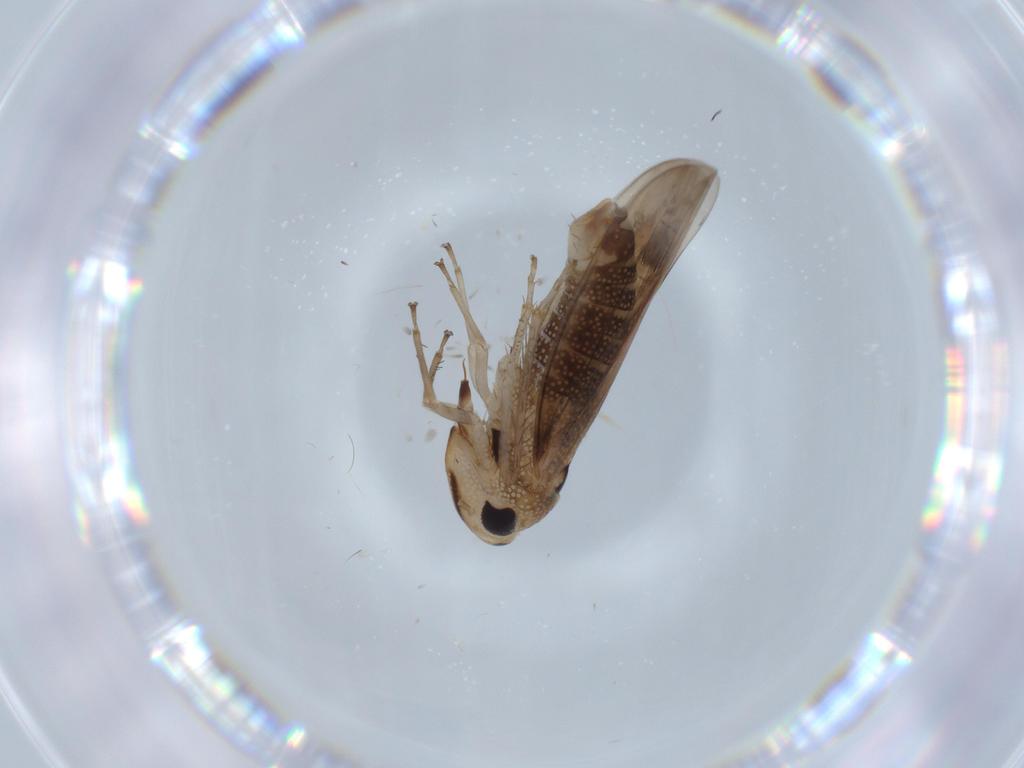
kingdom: Animalia
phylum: Arthropoda
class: Insecta
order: Hemiptera
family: Cicadellidae
